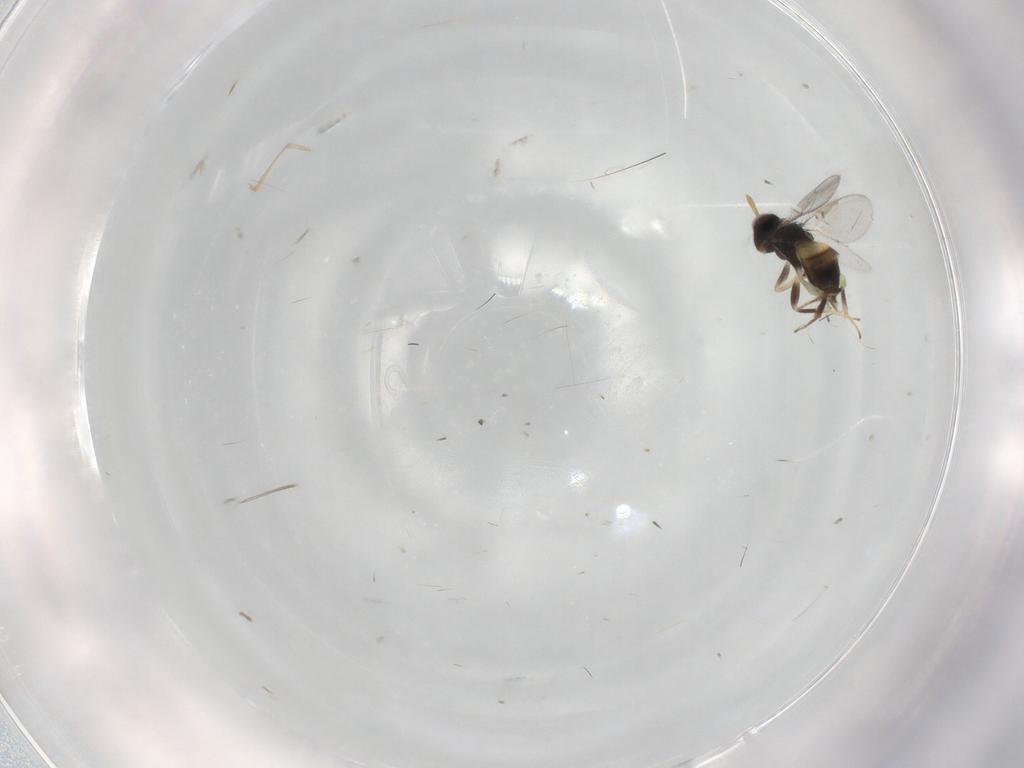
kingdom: Animalia
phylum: Arthropoda
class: Insecta
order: Hymenoptera
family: Aphelinidae
